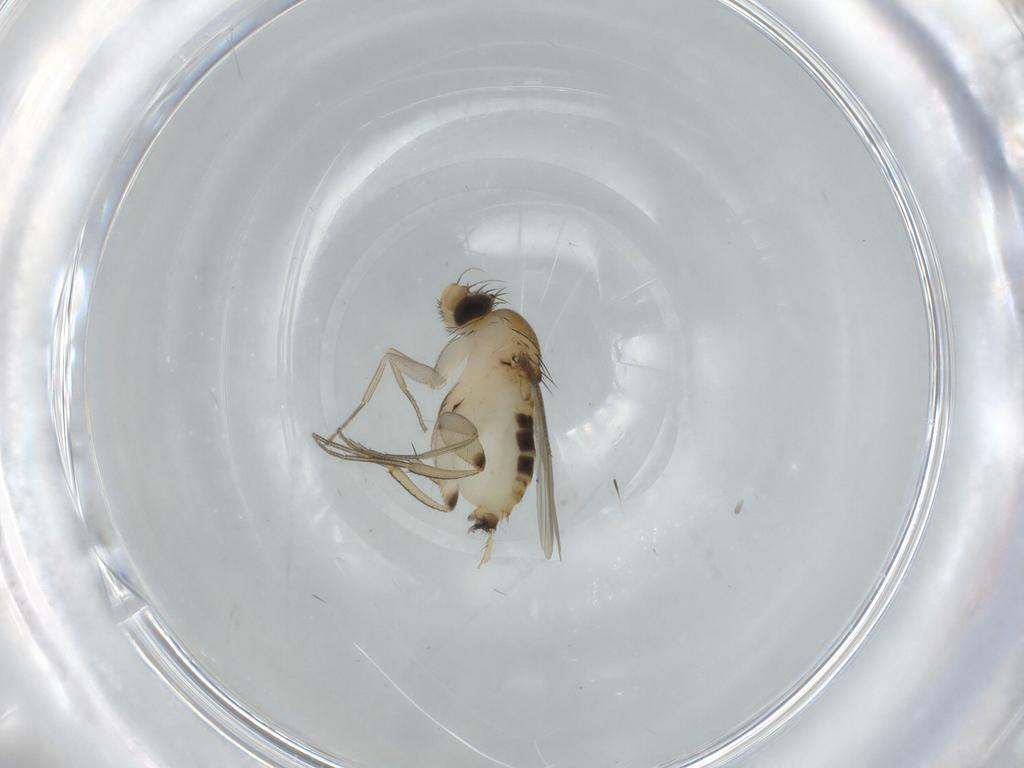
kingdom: Animalia
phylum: Arthropoda
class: Insecta
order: Diptera
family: Phoridae
